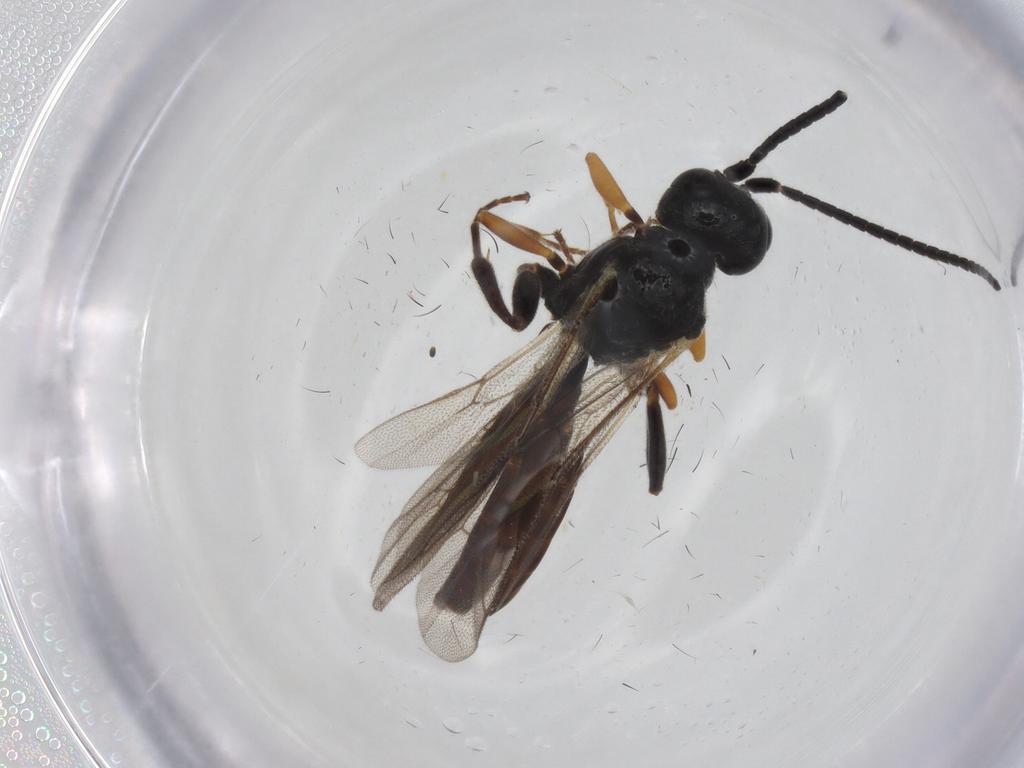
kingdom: Animalia
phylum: Arthropoda
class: Insecta
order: Hymenoptera
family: Ichneumonidae
